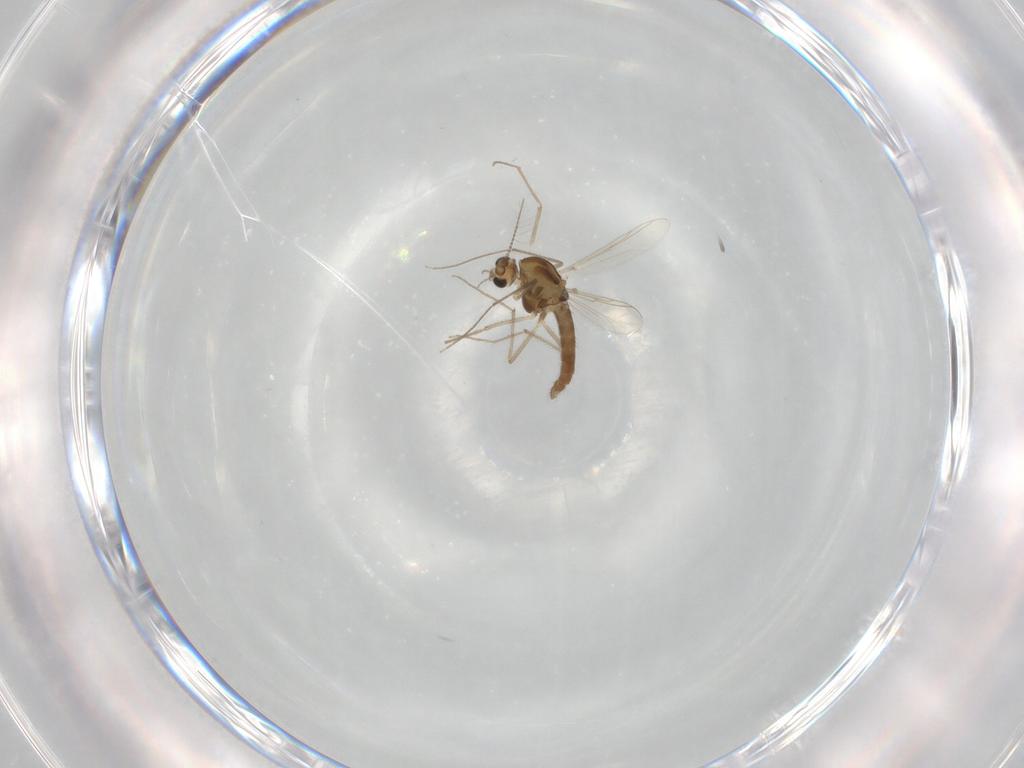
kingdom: Animalia
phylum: Arthropoda
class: Insecta
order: Diptera
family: Chironomidae
